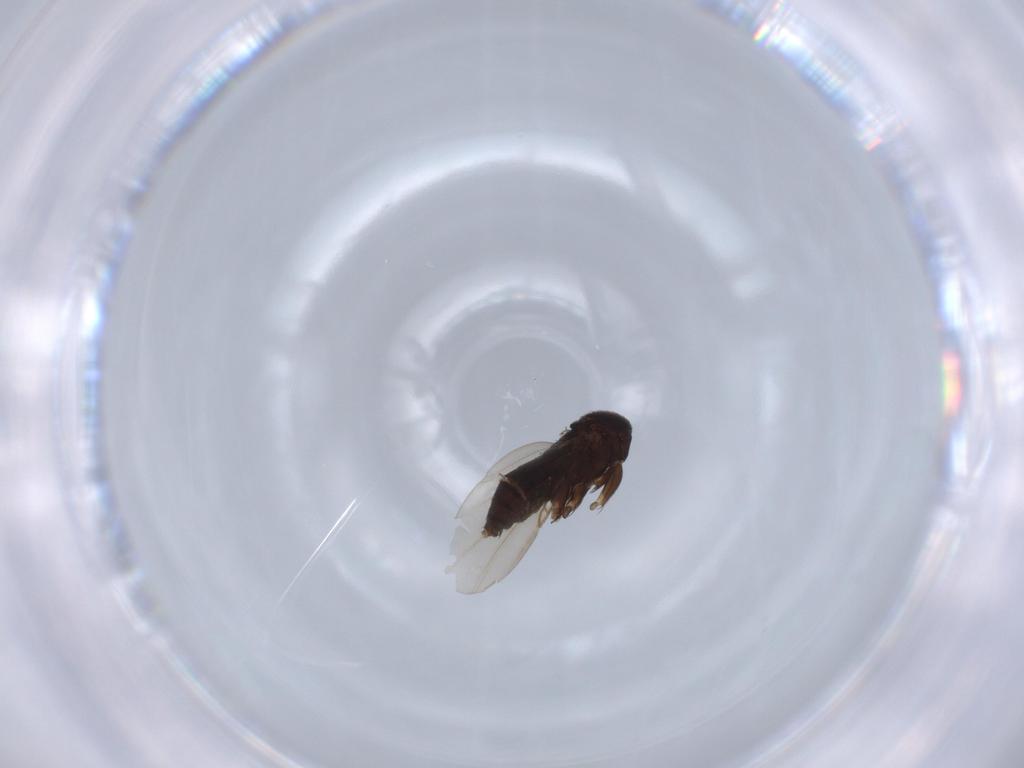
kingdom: Animalia
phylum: Arthropoda
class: Insecta
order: Diptera
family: Phoridae
